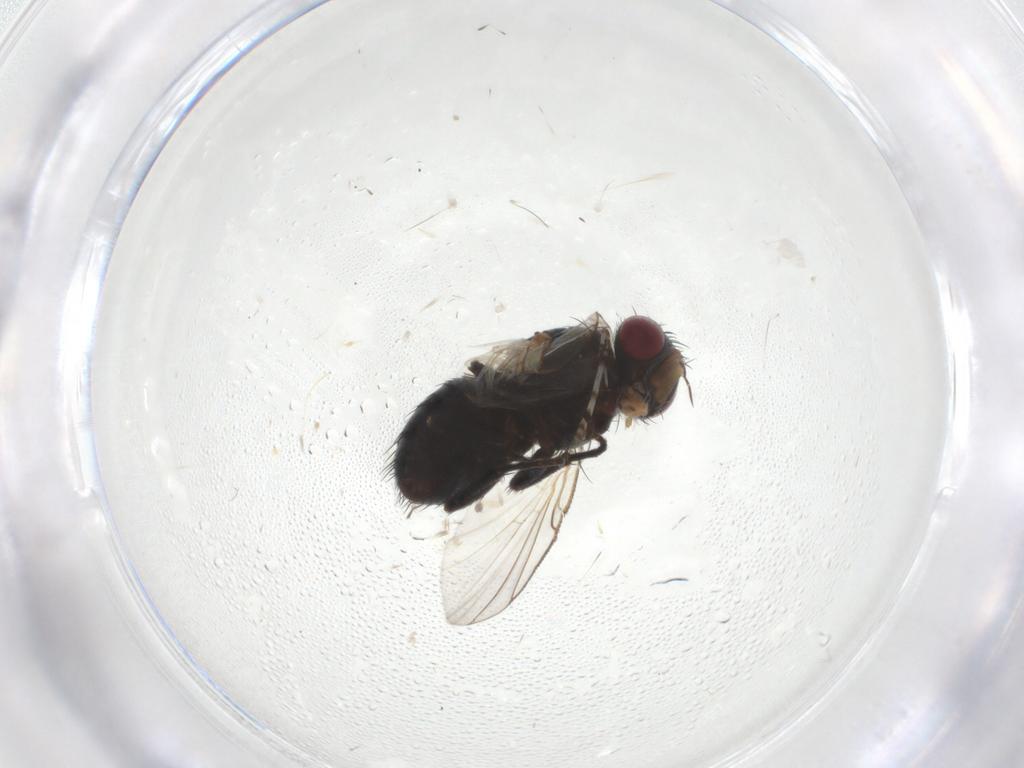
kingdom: Animalia
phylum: Arthropoda
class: Insecta
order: Diptera
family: Tachinidae
